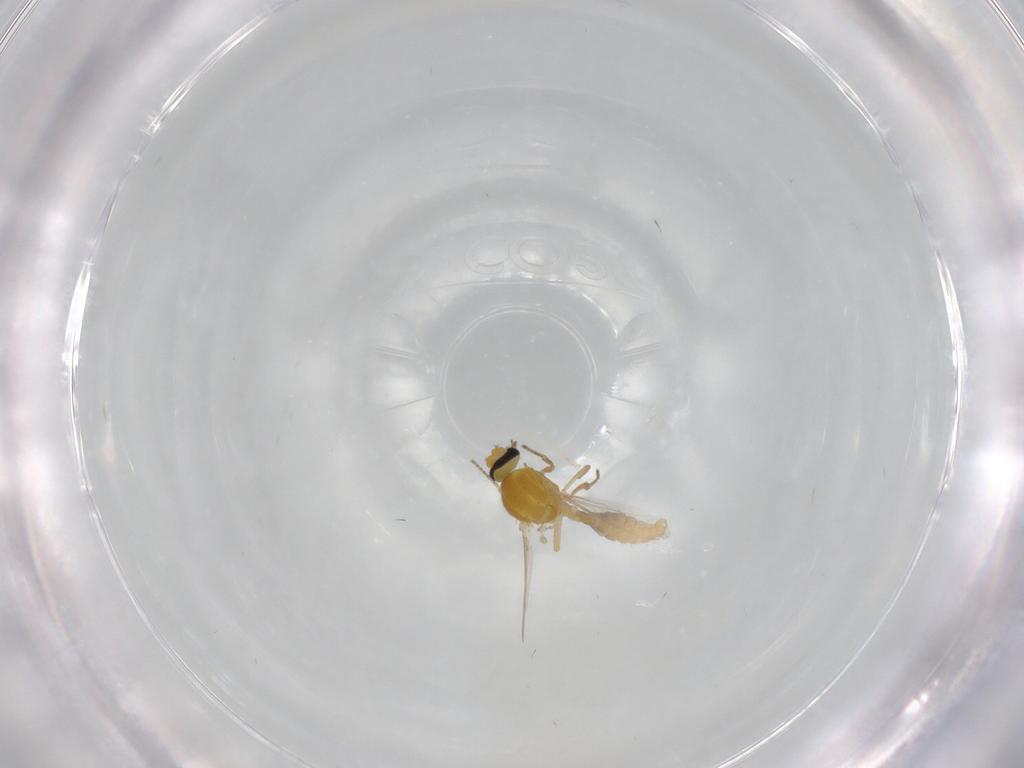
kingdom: Animalia
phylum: Arthropoda
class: Insecta
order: Diptera
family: Ceratopogonidae
